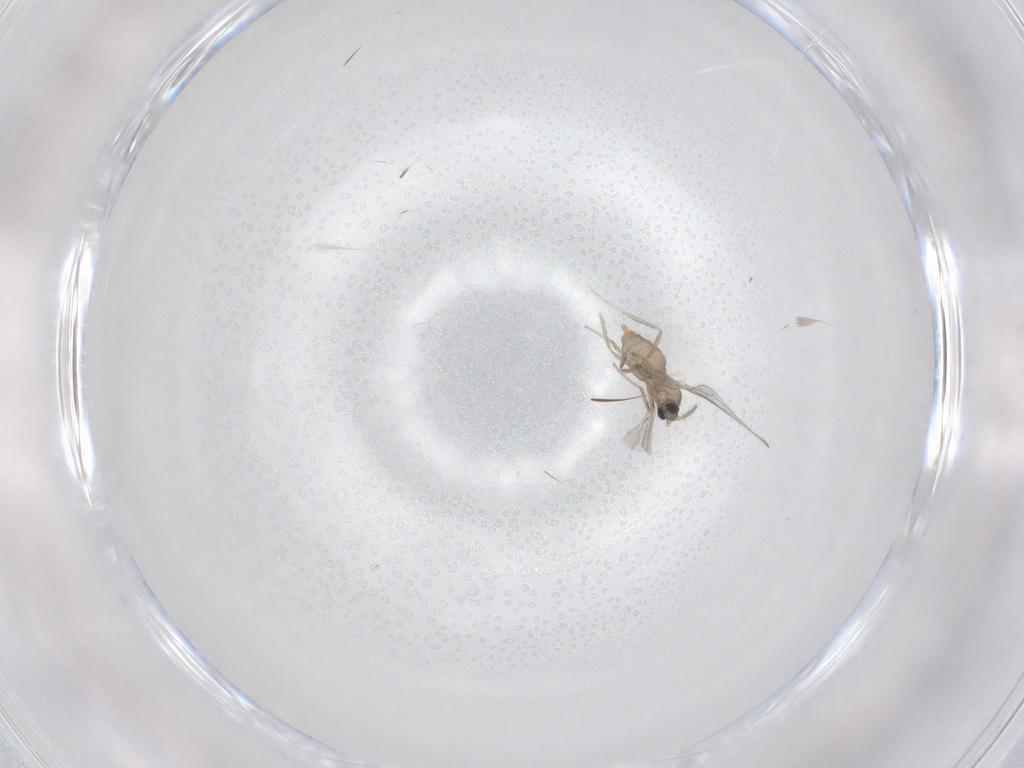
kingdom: Animalia
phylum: Arthropoda
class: Insecta
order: Diptera
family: Cecidomyiidae
